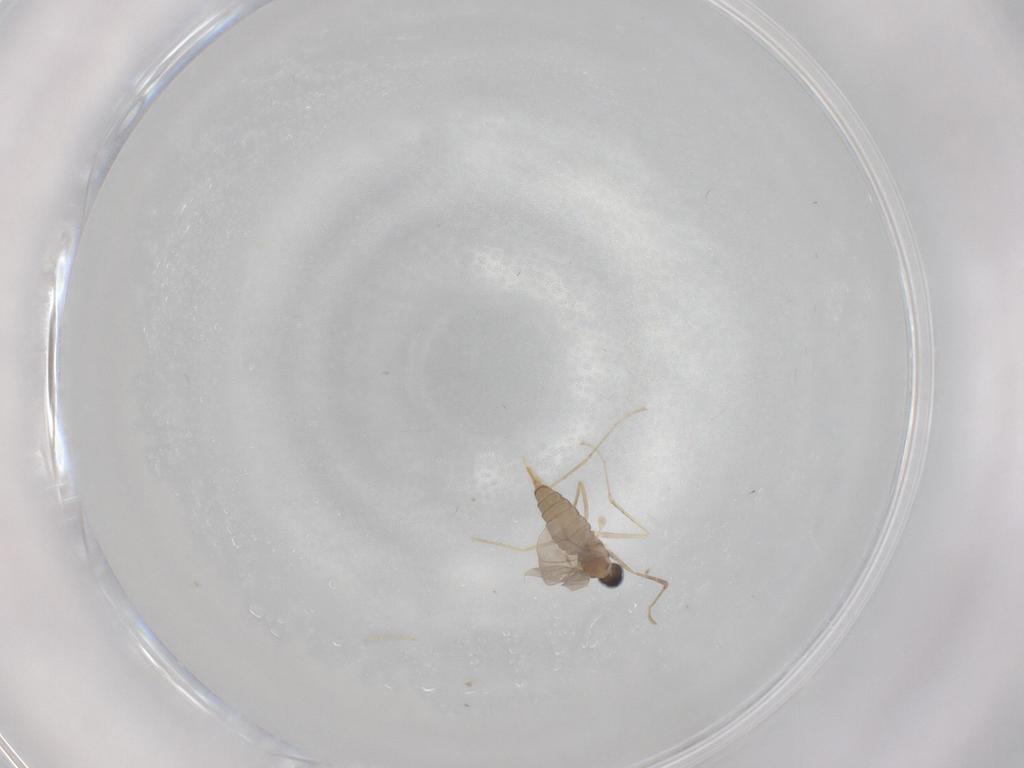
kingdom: Animalia
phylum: Arthropoda
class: Insecta
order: Diptera
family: Cecidomyiidae
